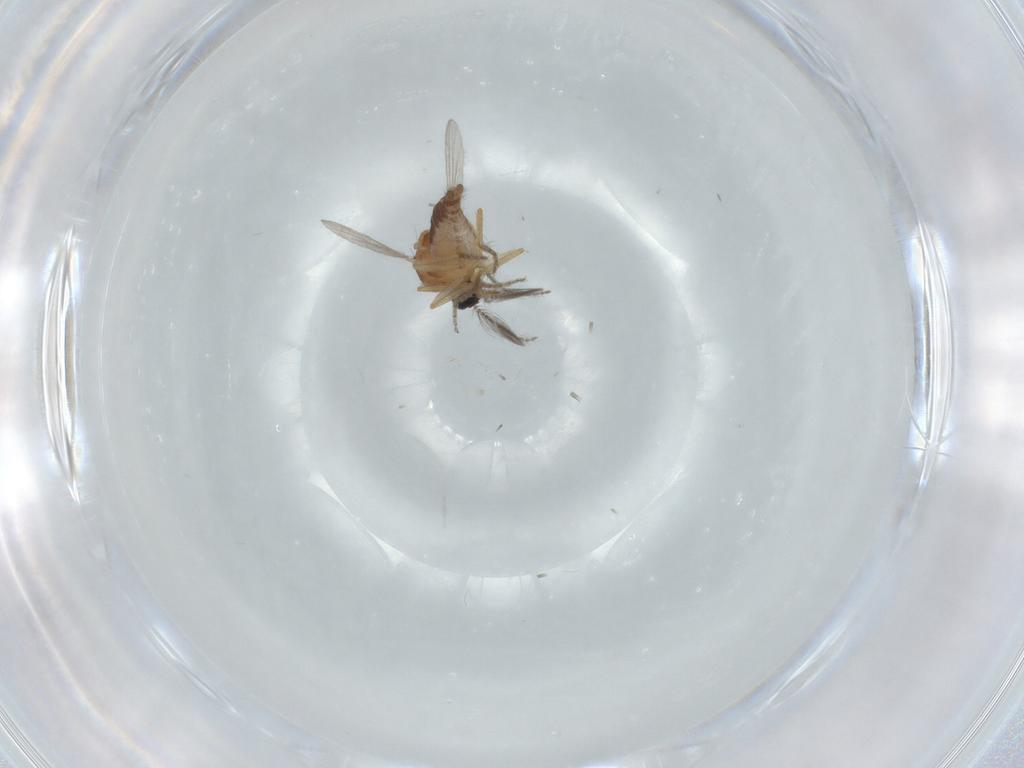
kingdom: Animalia
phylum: Arthropoda
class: Insecta
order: Diptera
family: Ceratopogonidae
